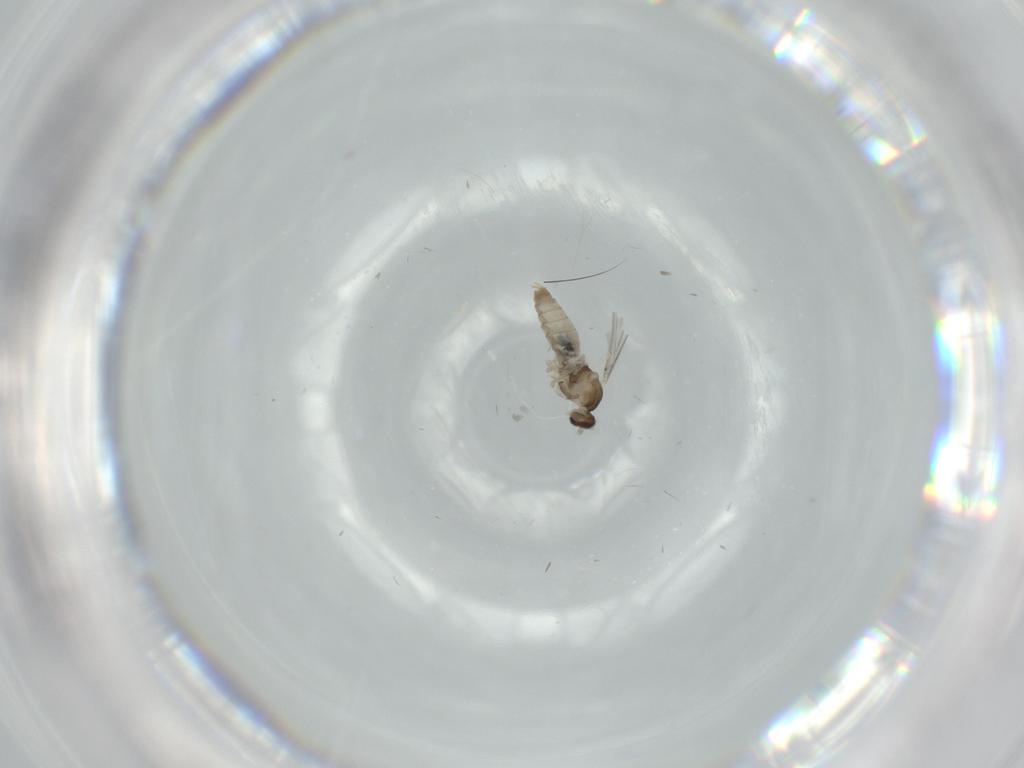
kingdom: Animalia
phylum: Arthropoda
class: Insecta
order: Diptera
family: Cecidomyiidae
